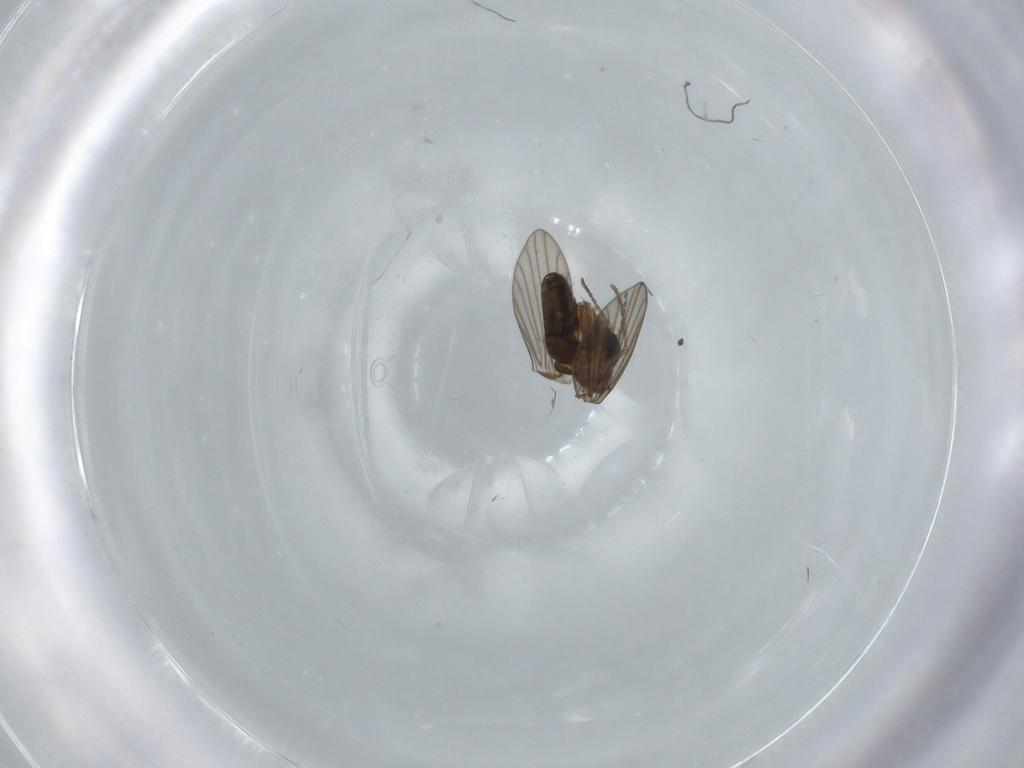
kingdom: Animalia
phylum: Arthropoda
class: Insecta
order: Diptera
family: Cecidomyiidae
